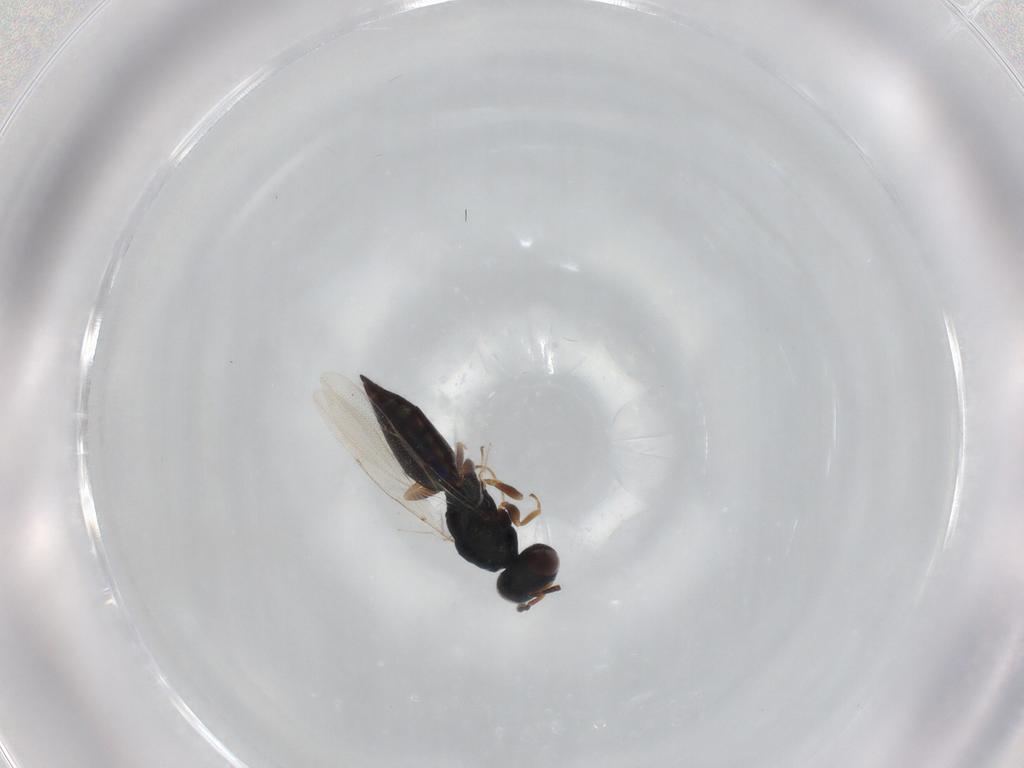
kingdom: Animalia
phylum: Arthropoda
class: Insecta
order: Hymenoptera
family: Pteromalidae
